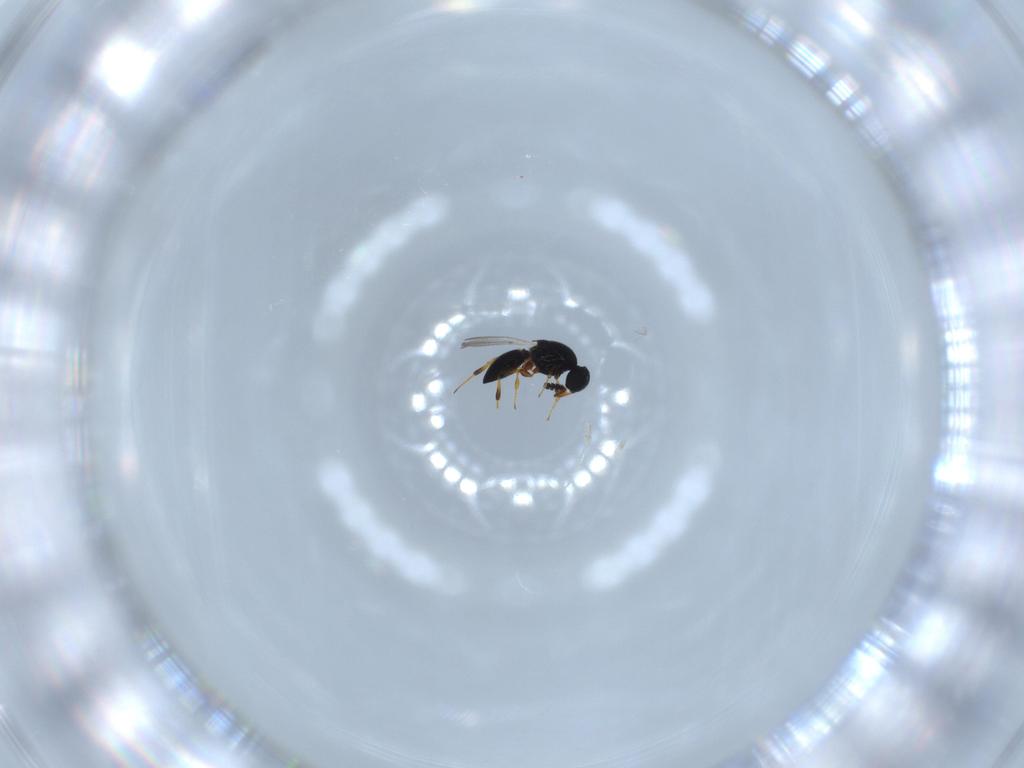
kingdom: Animalia
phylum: Arthropoda
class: Insecta
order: Hymenoptera
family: Platygastridae
